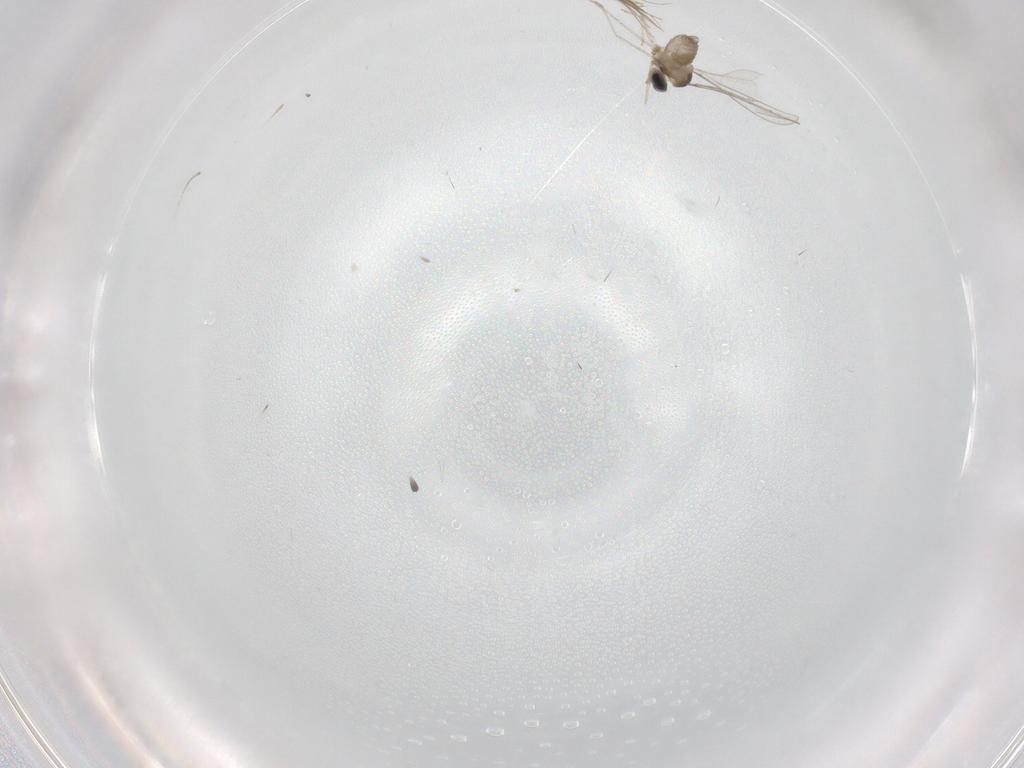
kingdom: Animalia
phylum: Arthropoda
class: Insecta
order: Diptera
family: Cecidomyiidae
